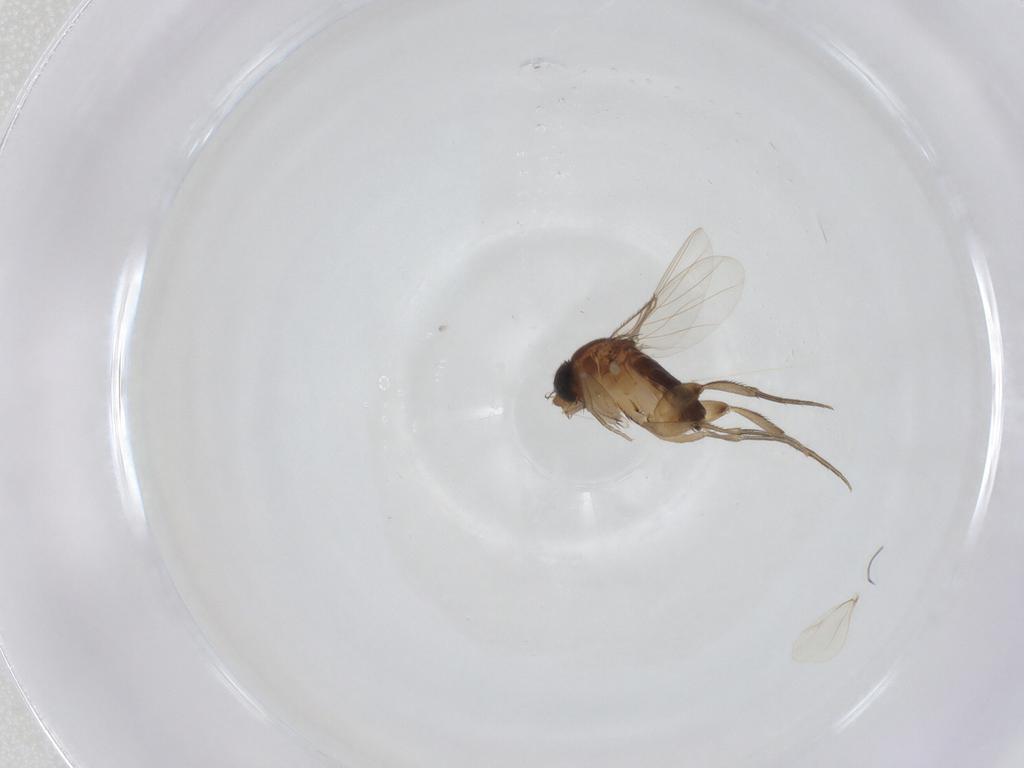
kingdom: Animalia
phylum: Arthropoda
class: Insecta
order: Diptera
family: Phoridae
